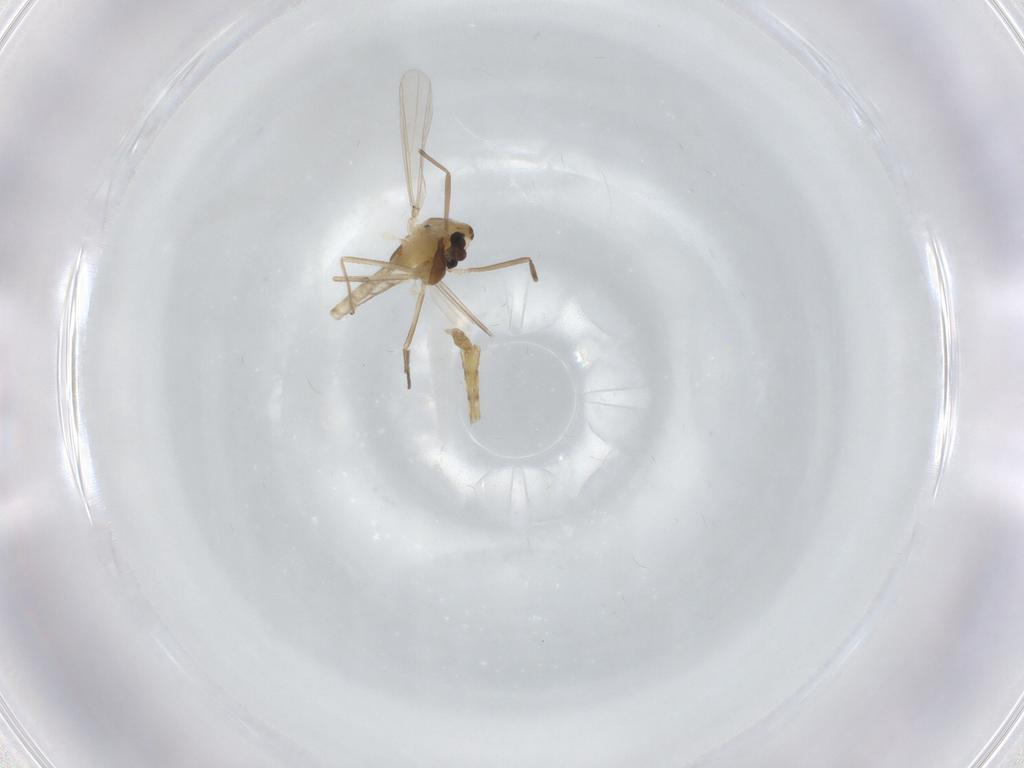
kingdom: Animalia
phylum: Arthropoda
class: Insecta
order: Diptera
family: Chironomidae
